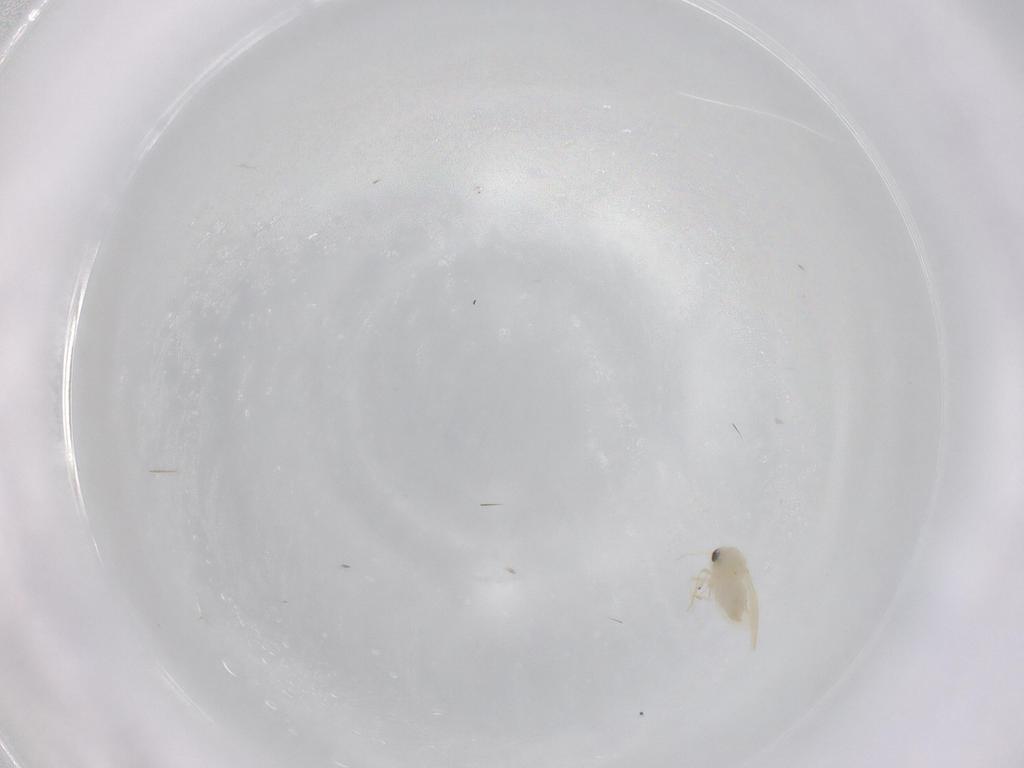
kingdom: Animalia
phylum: Arthropoda
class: Insecta
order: Hemiptera
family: Aleyrodidae
